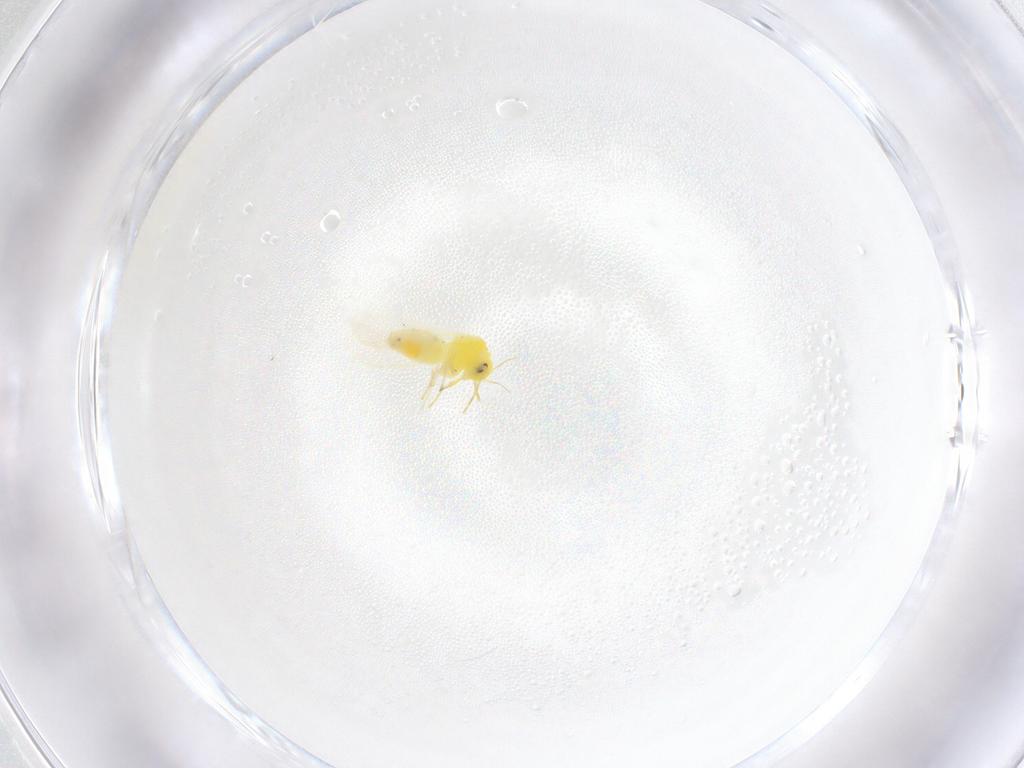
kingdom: Animalia
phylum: Arthropoda
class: Insecta
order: Hemiptera
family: Aleyrodidae
